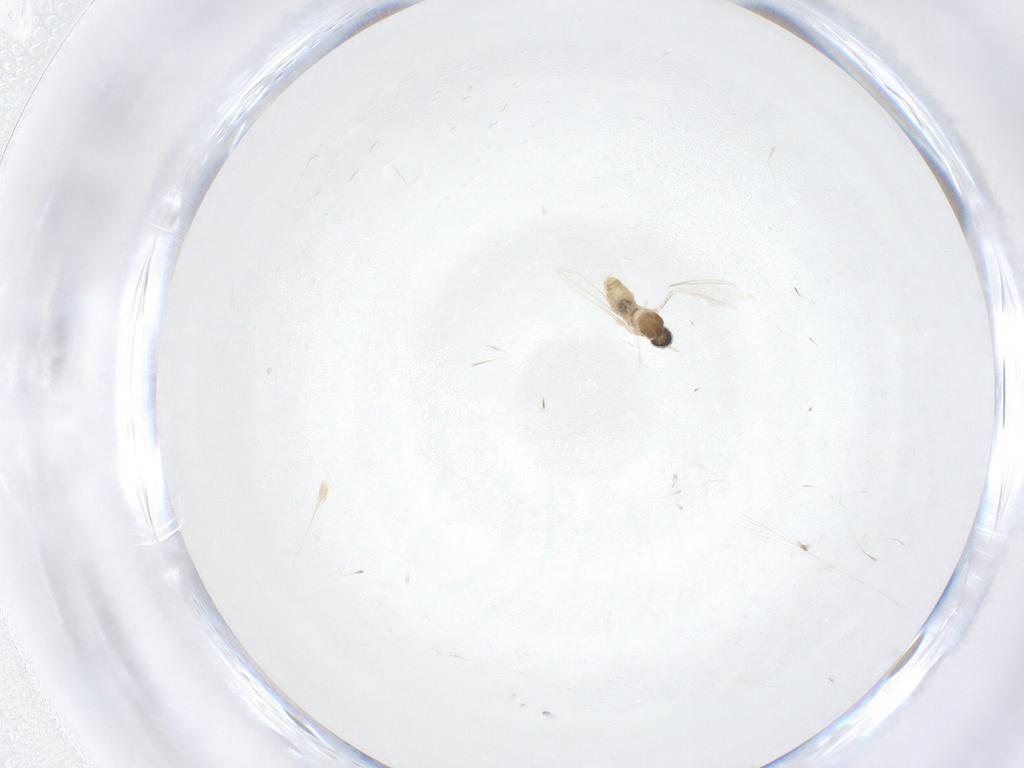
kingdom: Animalia
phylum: Arthropoda
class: Insecta
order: Diptera
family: Cecidomyiidae
